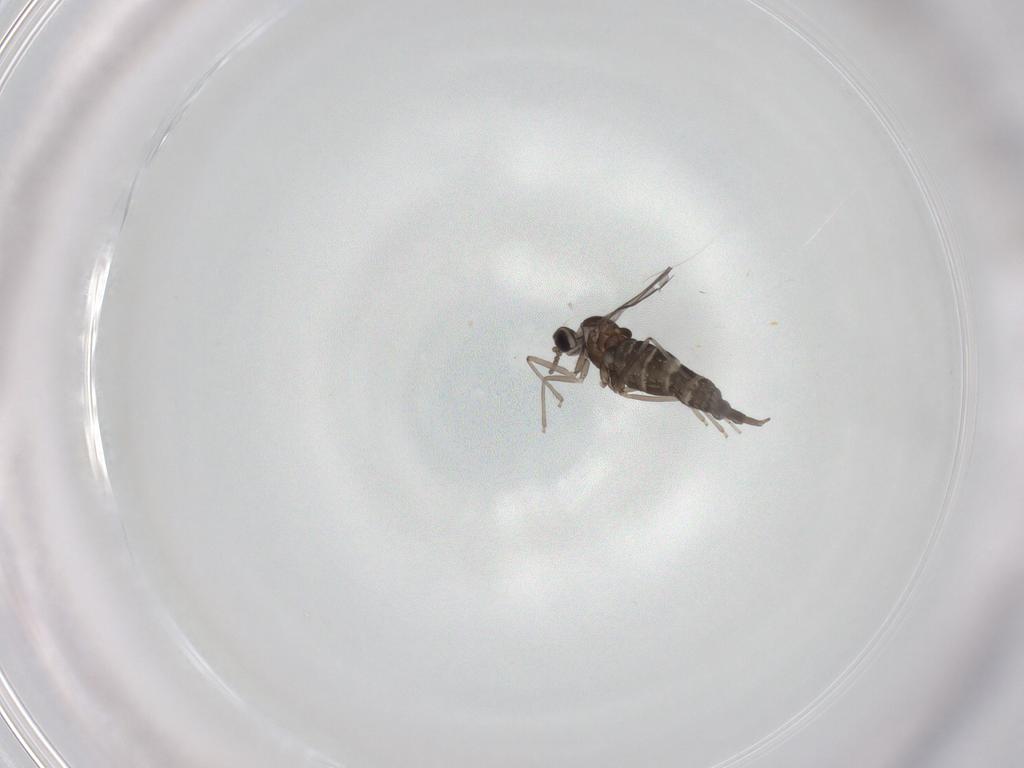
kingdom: Animalia
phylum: Arthropoda
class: Insecta
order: Diptera
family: Cecidomyiidae
